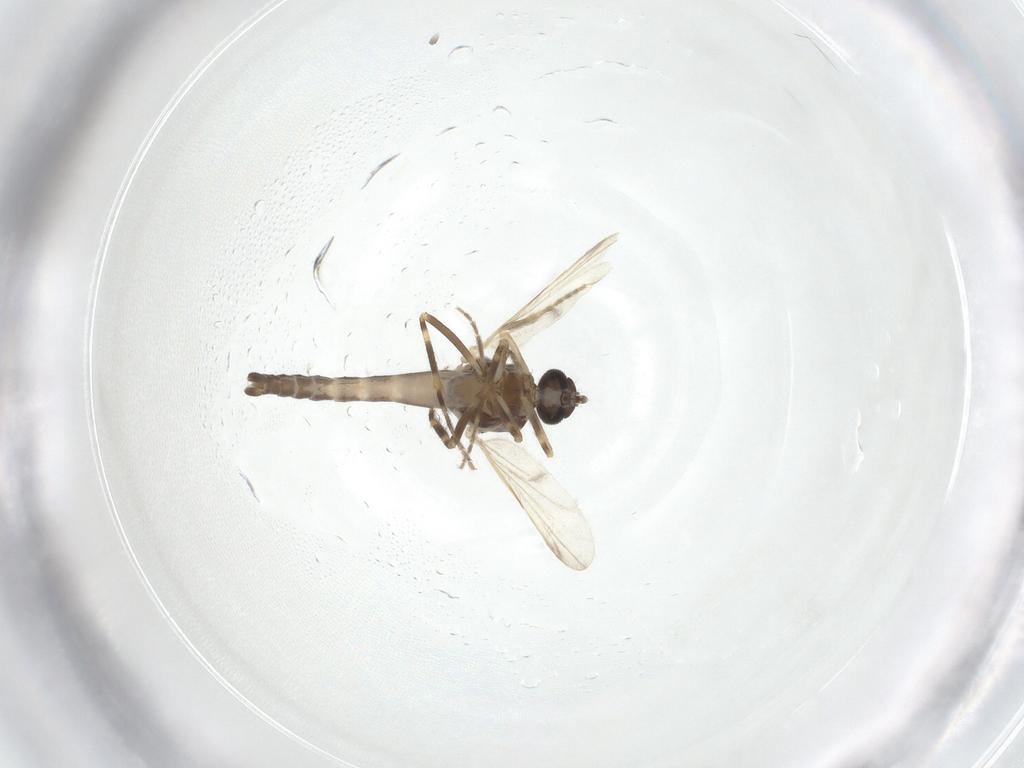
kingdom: Animalia
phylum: Arthropoda
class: Insecta
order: Diptera
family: Ceratopogonidae
